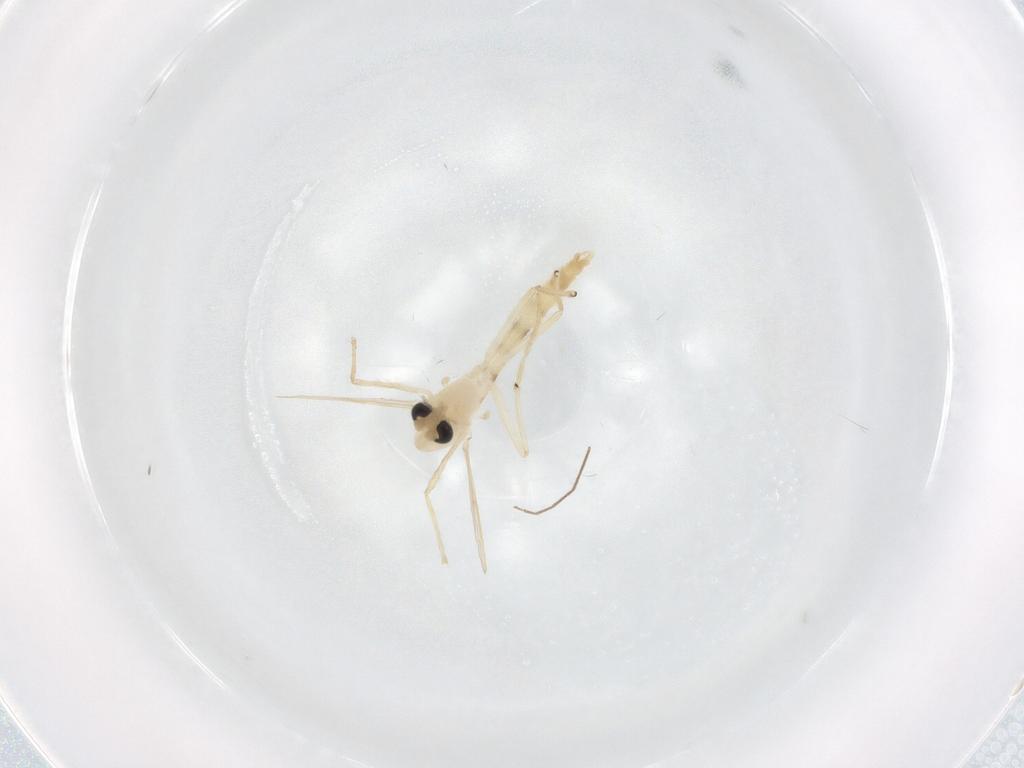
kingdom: Animalia
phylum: Arthropoda
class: Insecta
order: Diptera
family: Chironomidae
